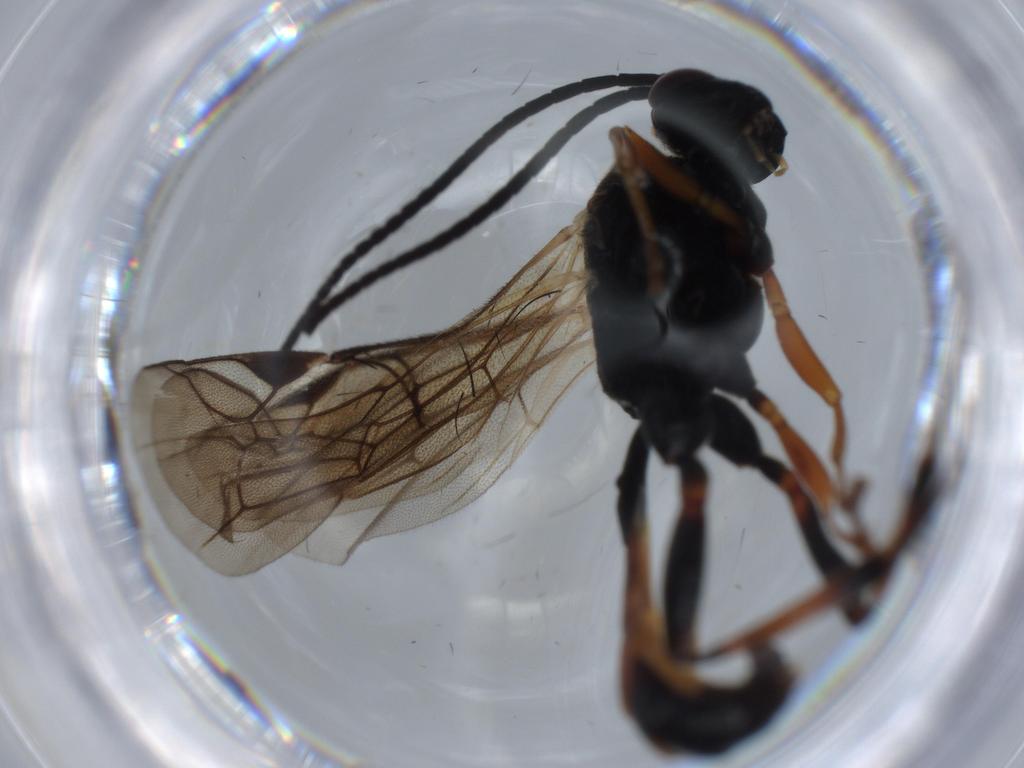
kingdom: Animalia
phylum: Arthropoda
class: Insecta
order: Hymenoptera
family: Ichneumonidae
